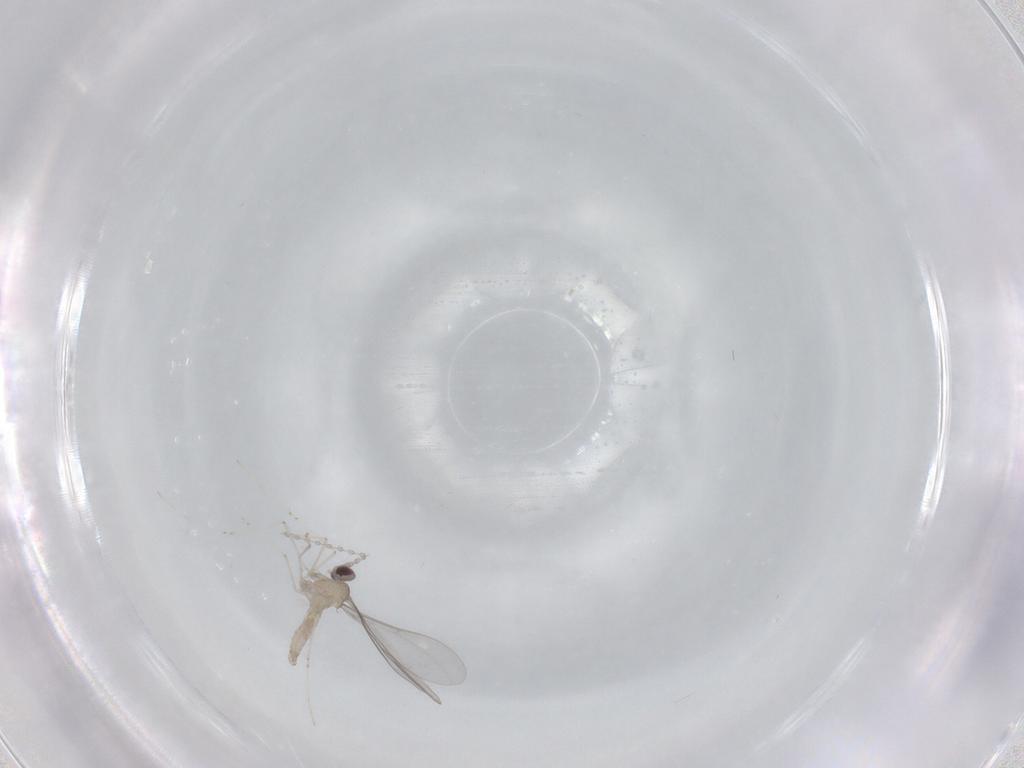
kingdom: Animalia
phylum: Arthropoda
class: Insecta
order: Diptera
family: Cecidomyiidae
